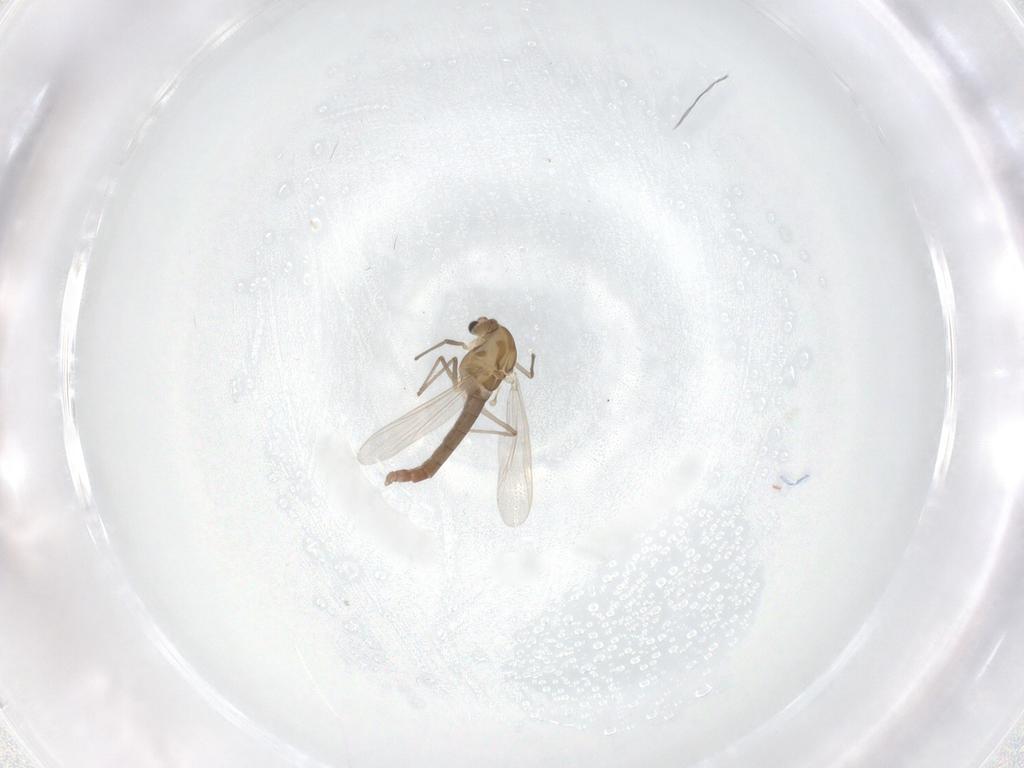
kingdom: Animalia
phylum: Arthropoda
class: Insecta
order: Diptera
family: Chironomidae
